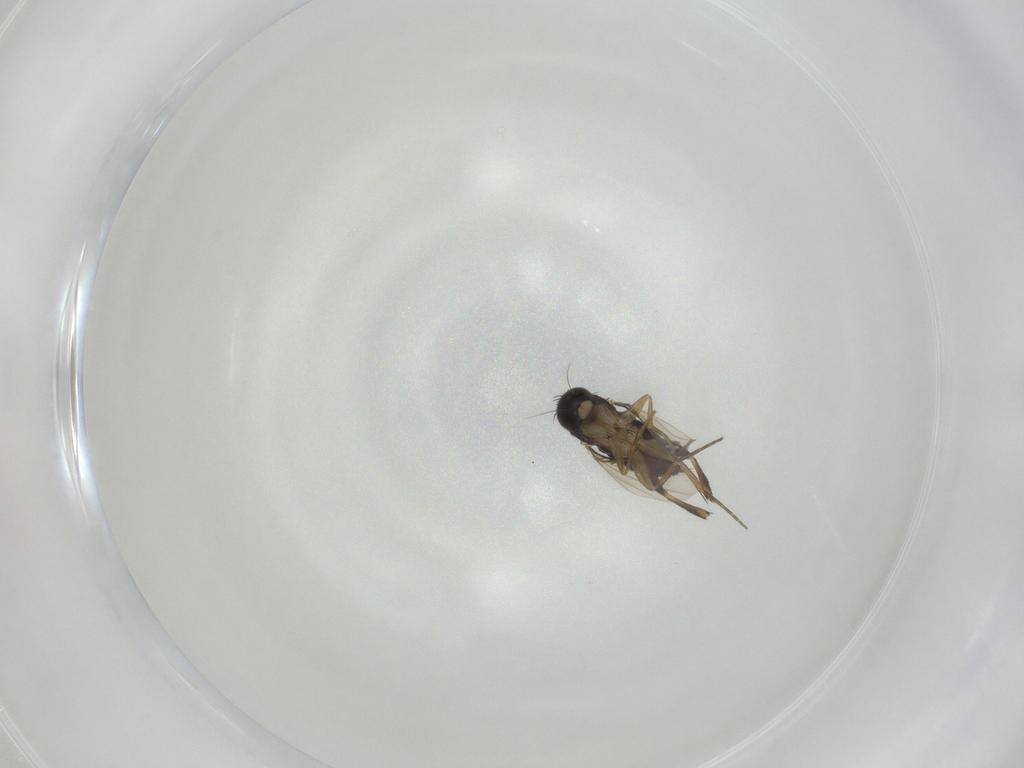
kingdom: Animalia
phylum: Arthropoda
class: Insecta
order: Diptera
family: Phoridae
